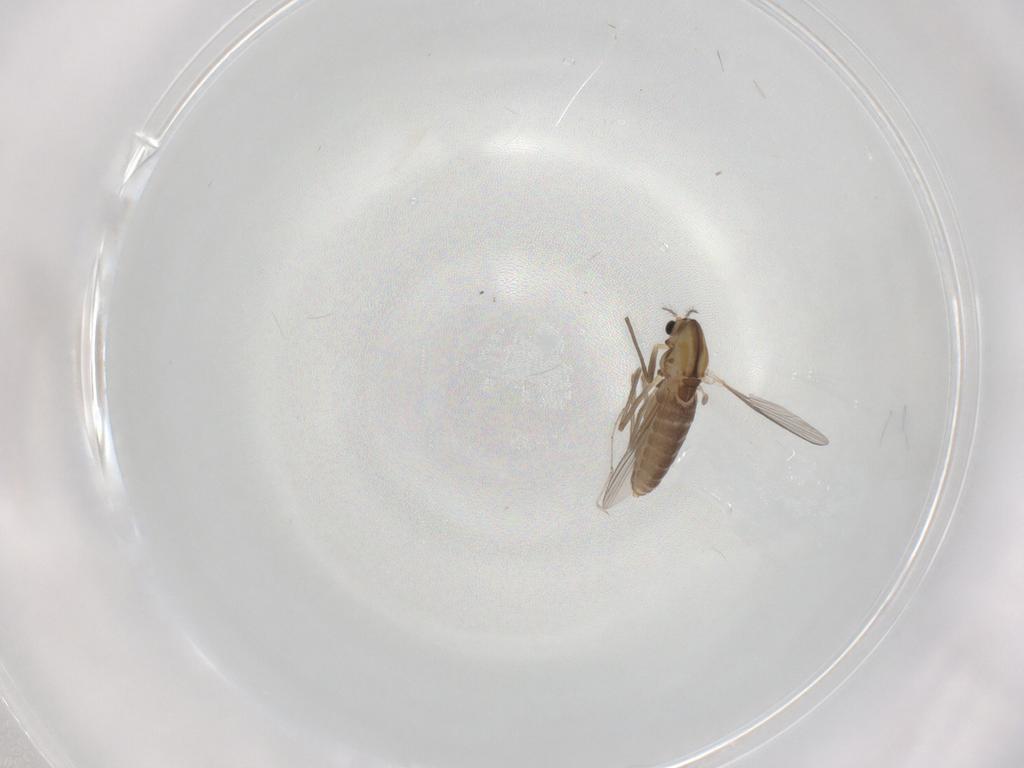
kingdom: Animalia
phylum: Arthropoda
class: Insecta
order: Diptera
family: Chironomidae
